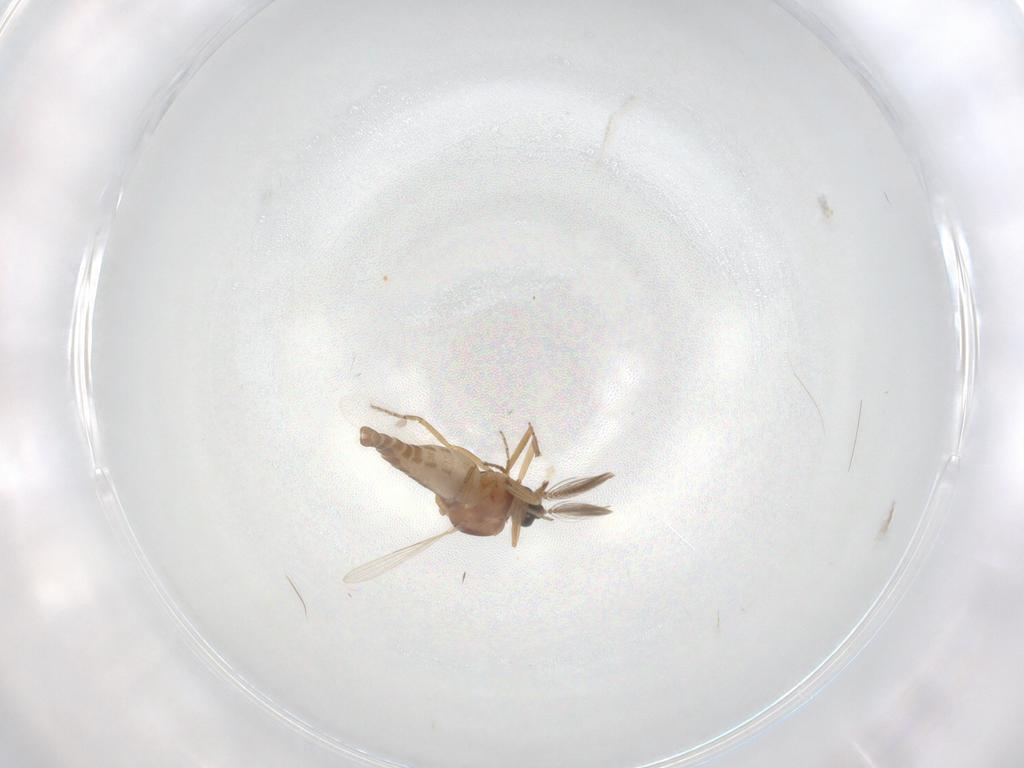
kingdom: Animalia
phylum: Arthropoda
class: Insecta
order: Diptera
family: Ceratopogonidae
